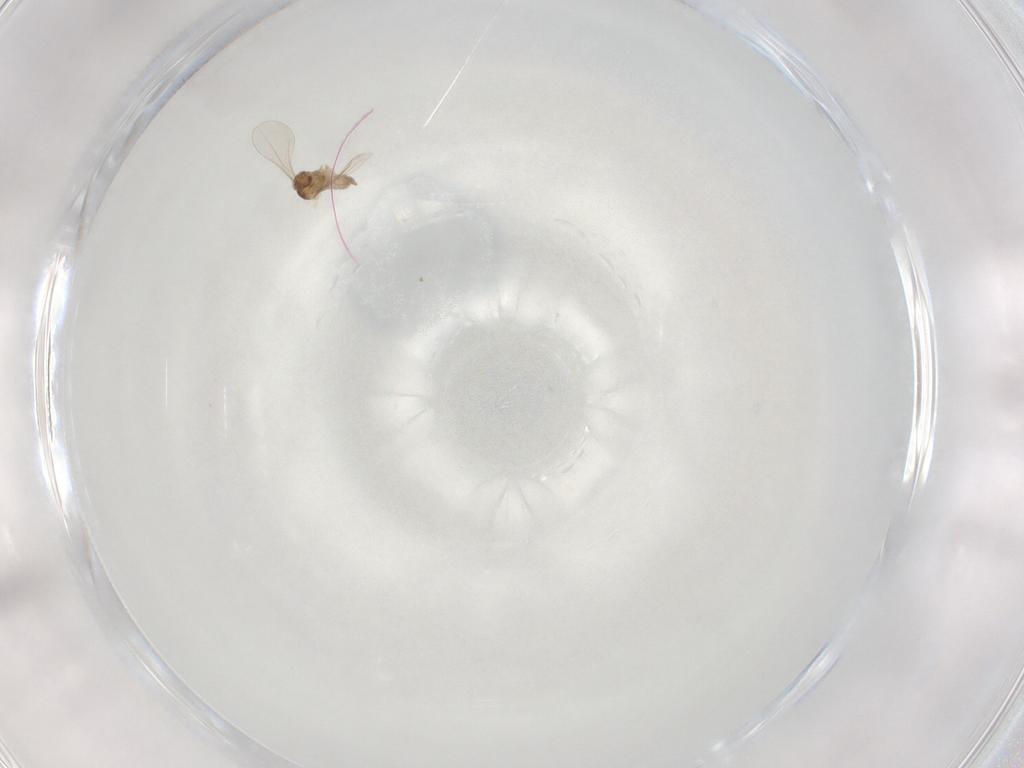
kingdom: Animalia
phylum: Arthropoda
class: Insecta
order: Diptera
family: Cecidomyiidae
